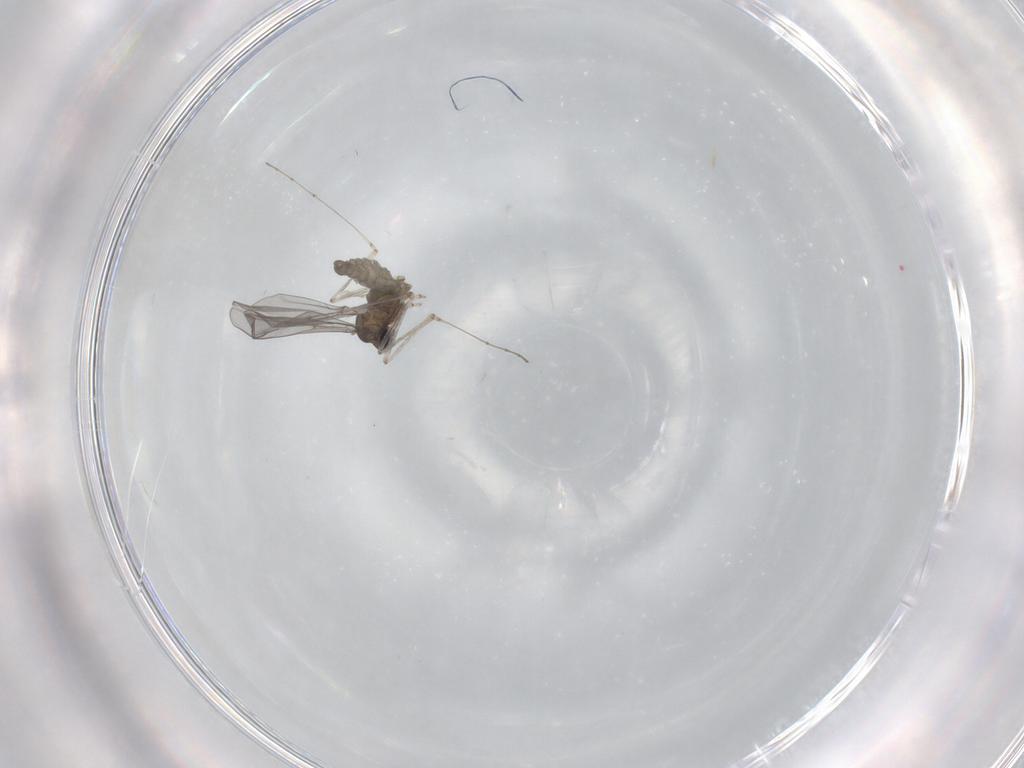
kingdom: Animalia
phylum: Arthropoda
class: Insecta
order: Diptera
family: Cecidomyiidae
